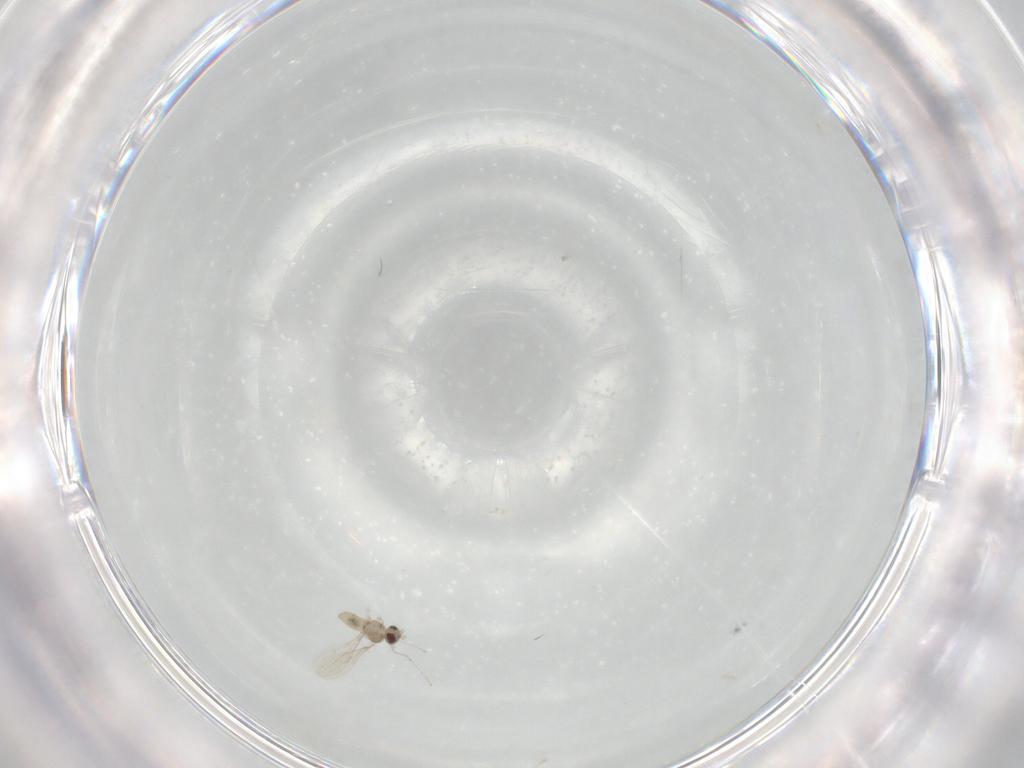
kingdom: Animalia
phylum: Arthropoda
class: Insecta
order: Diptera
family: Cecidomyiidae
